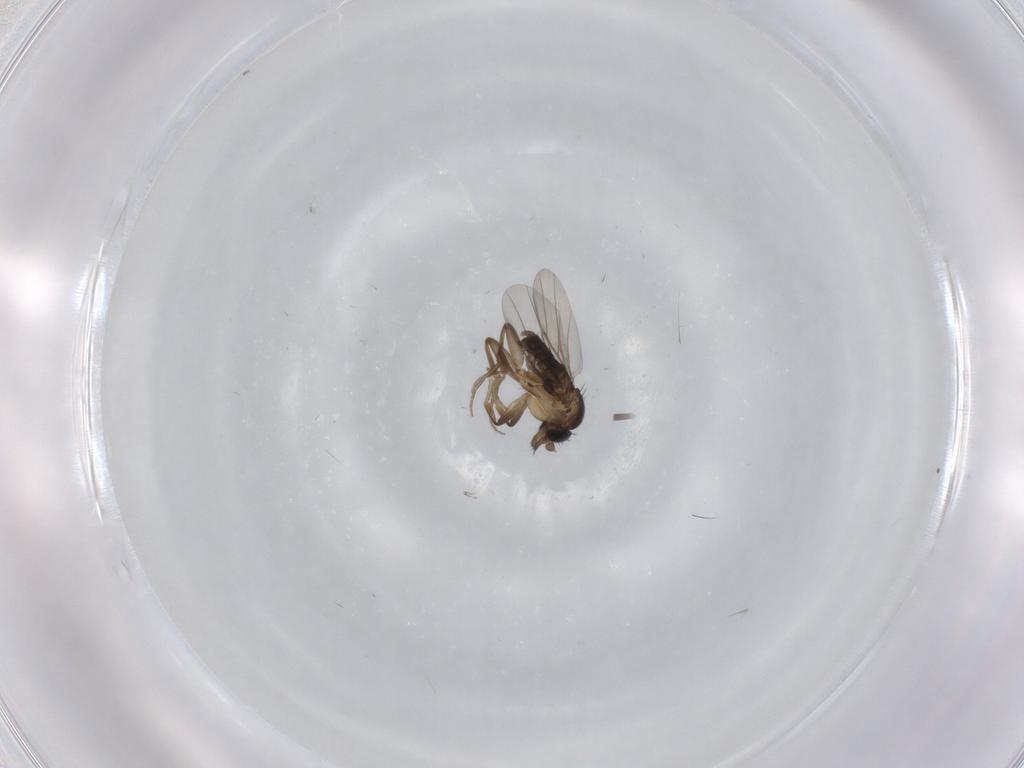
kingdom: Animalia
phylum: Arthropoda
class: Insecta
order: Diptera
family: Phoridae
